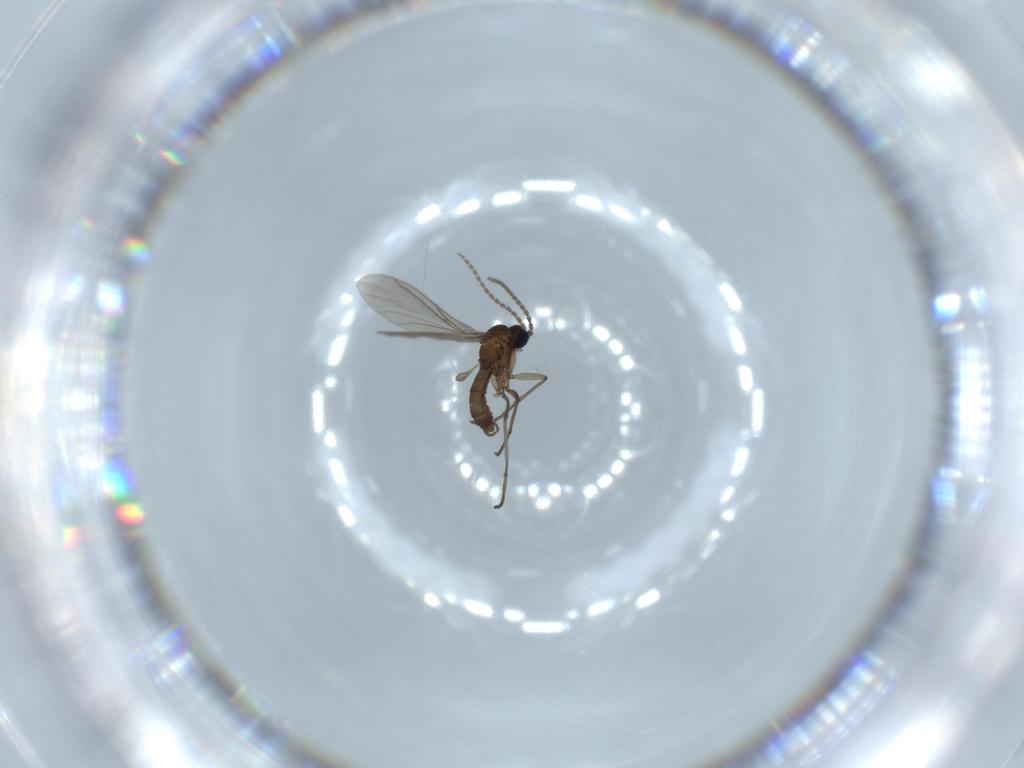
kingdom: Animalia
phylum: Arthropoda
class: Insecta
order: Diptera
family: Sciaridae
